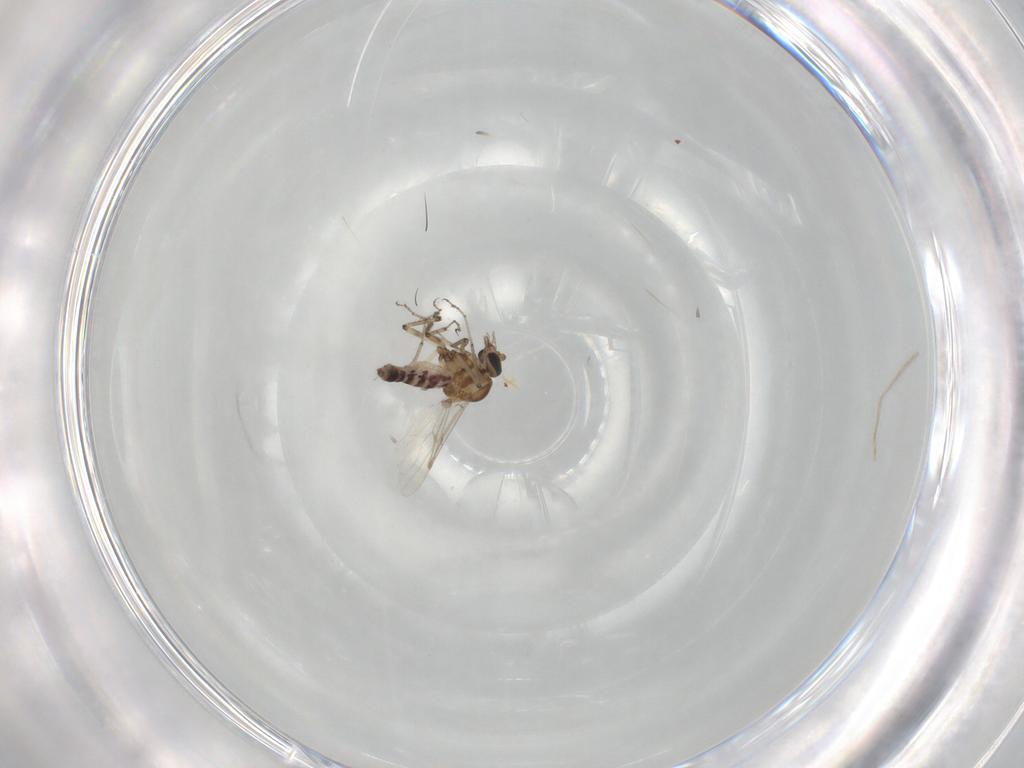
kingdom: Animalia
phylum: Arthropoda
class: Insecta
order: Diptera
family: Ceratopogonidae
